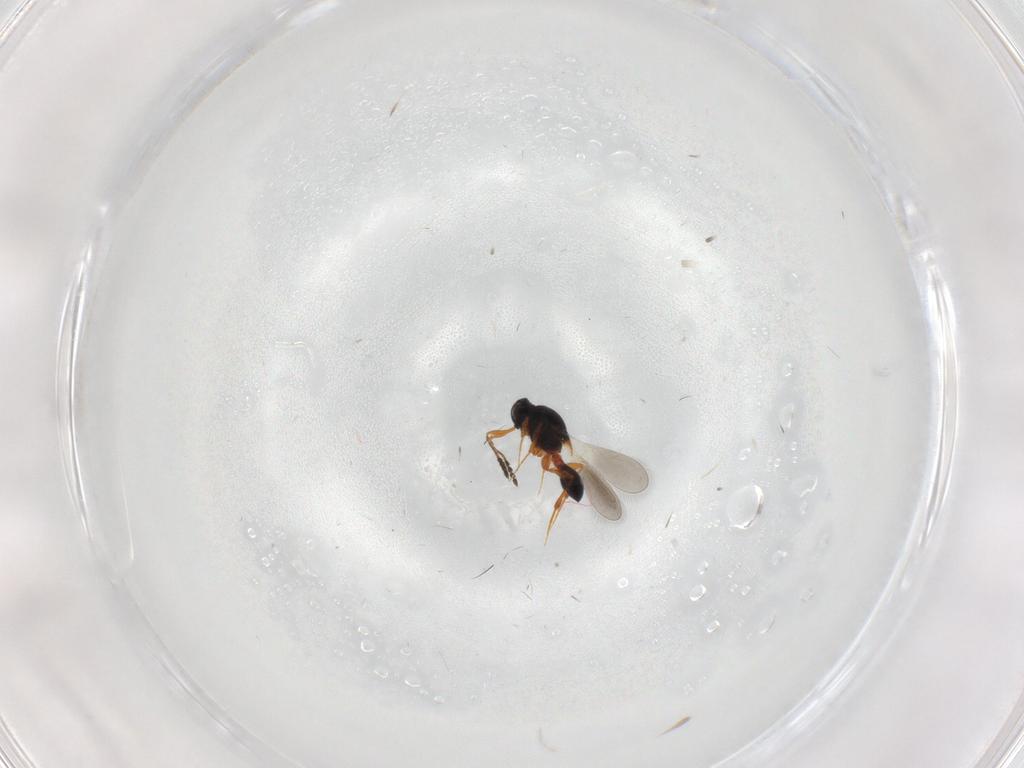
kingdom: Animalia
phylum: Arthropoda
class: Insecta
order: Hymenoptera
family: Platygastridae
